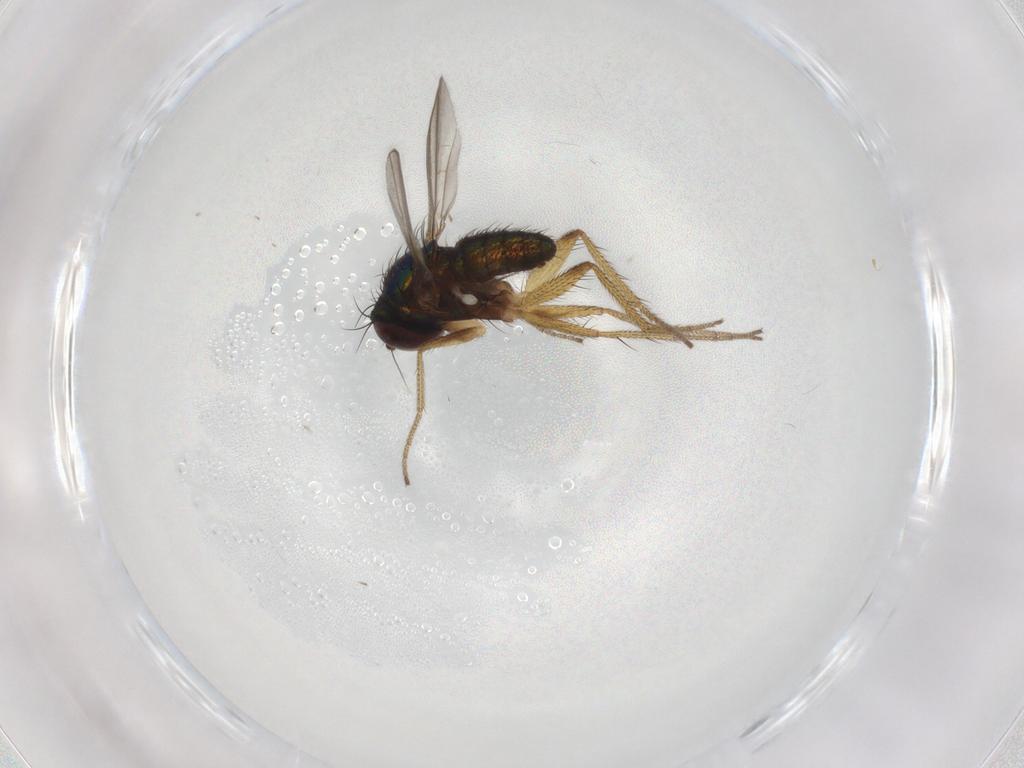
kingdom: Animalia
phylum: Arthropoda
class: Insecta
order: Diptera
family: Dolichopodidae
